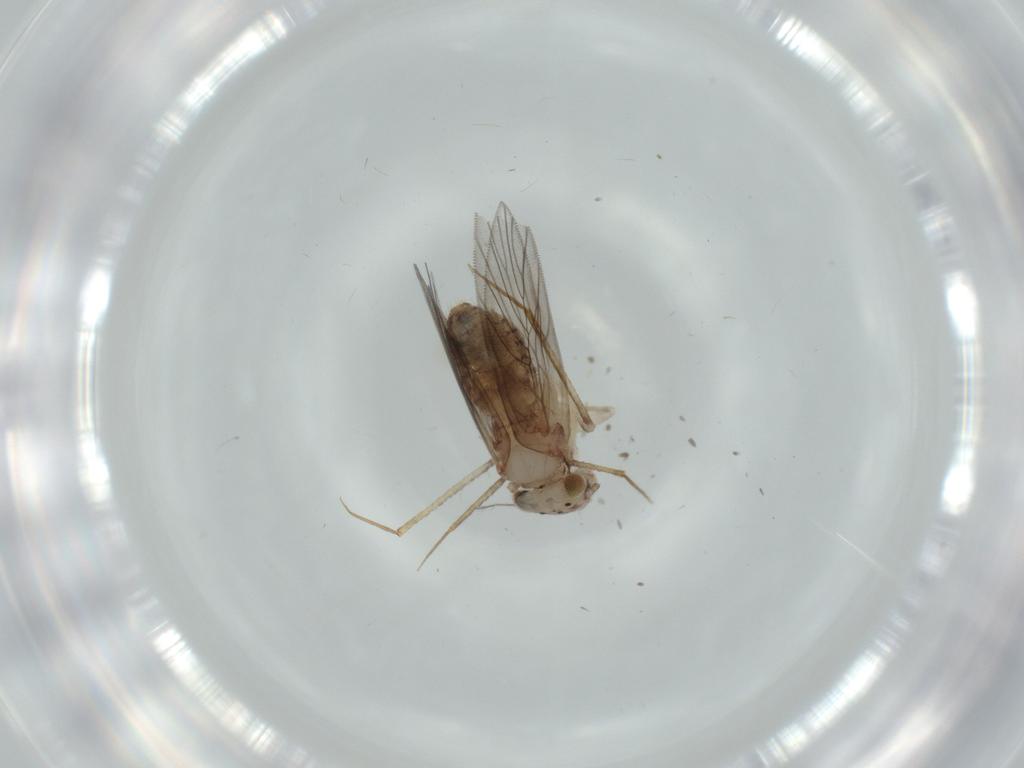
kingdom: Animalia
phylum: Arthropoda
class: Insecta
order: Psocodea
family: Lepidopsocidae
